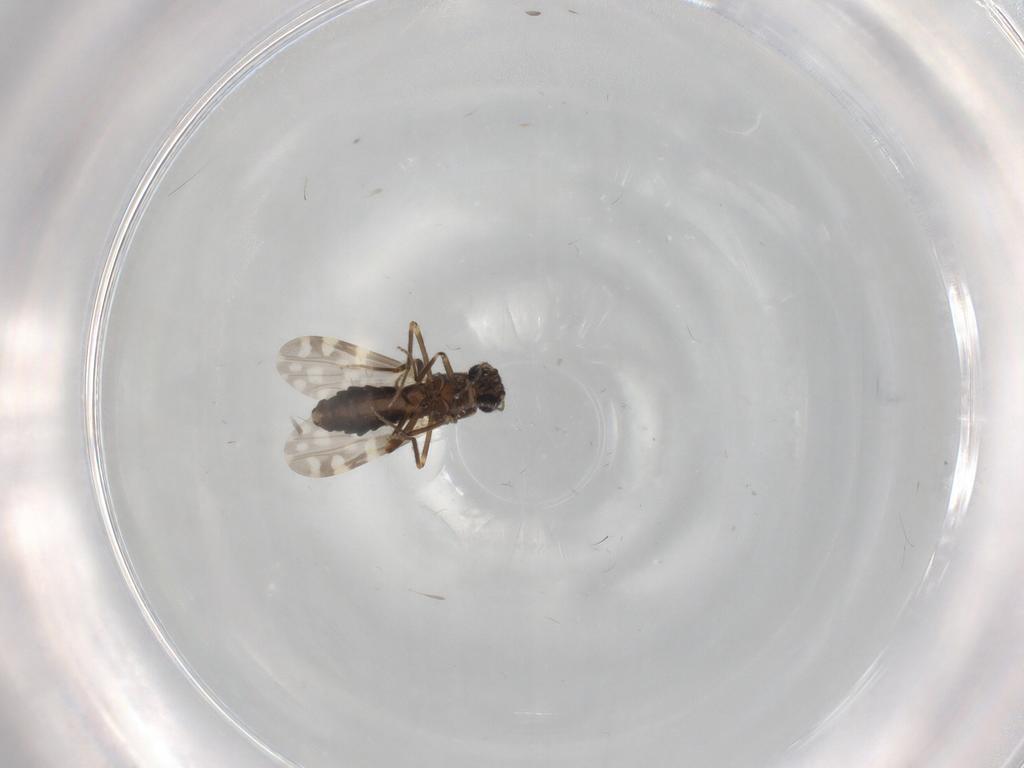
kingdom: Animalia
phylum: Arthropoda
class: Insecta
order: Diptera
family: Ceratopogonidae
